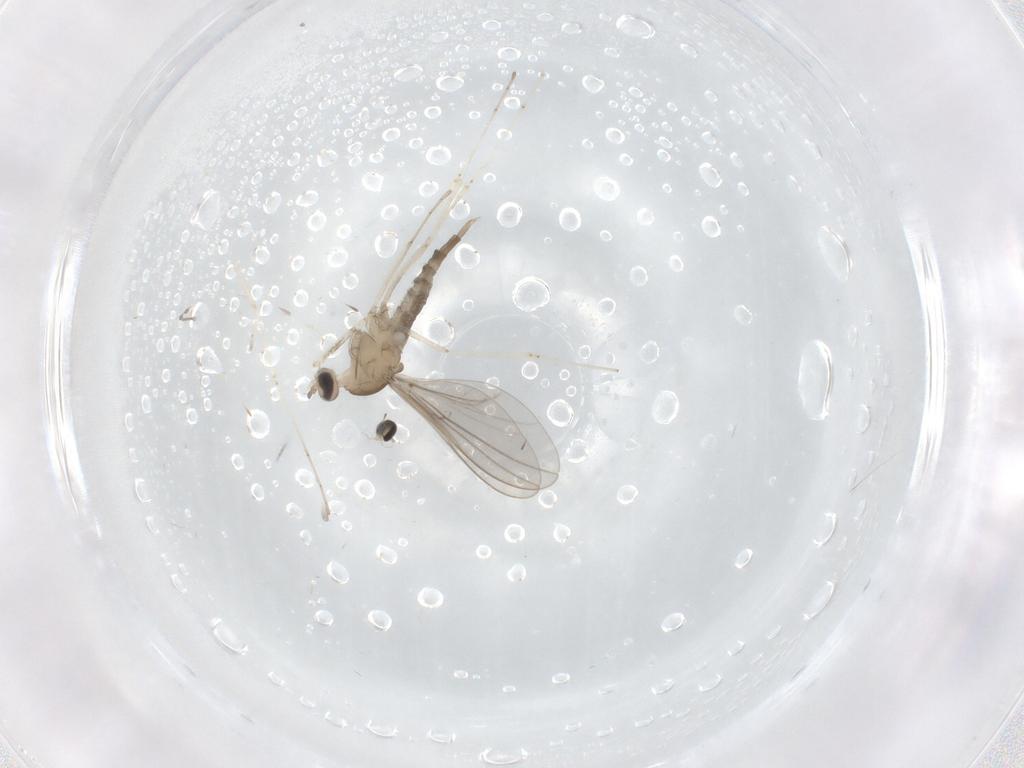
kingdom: Animalia
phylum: Arthropoda
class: Insecta
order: Diptera
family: Cecidomyiidae
